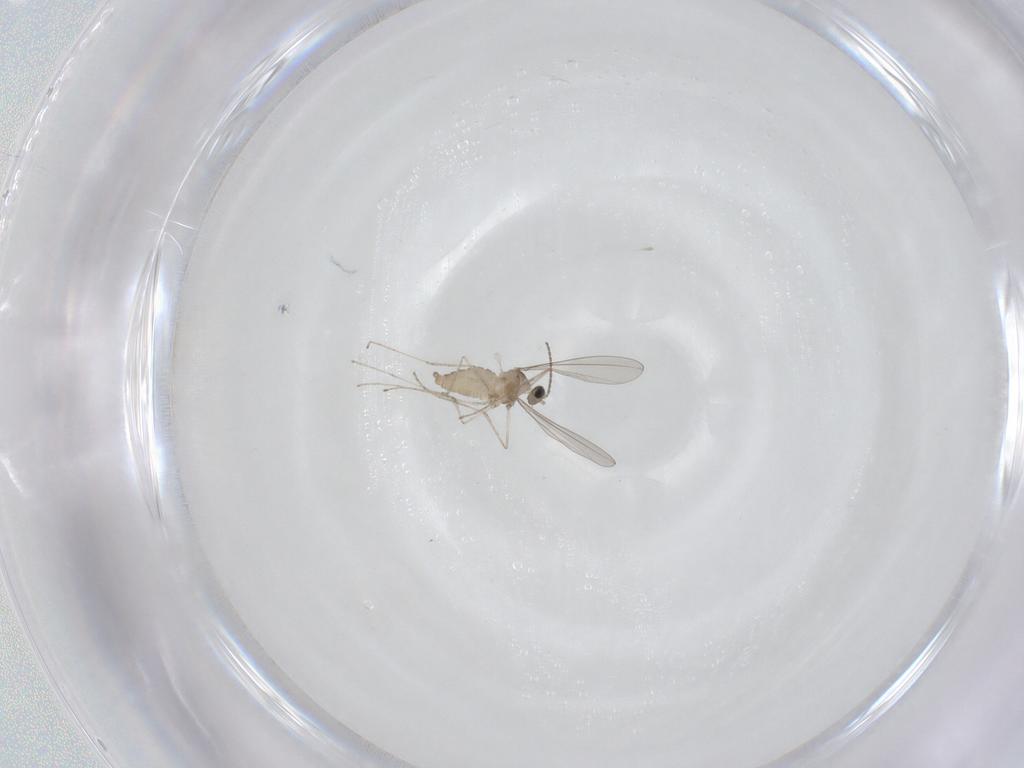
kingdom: Animalia
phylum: Arthropoda
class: Insecta
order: Diptera
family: Cecidomyiidae
